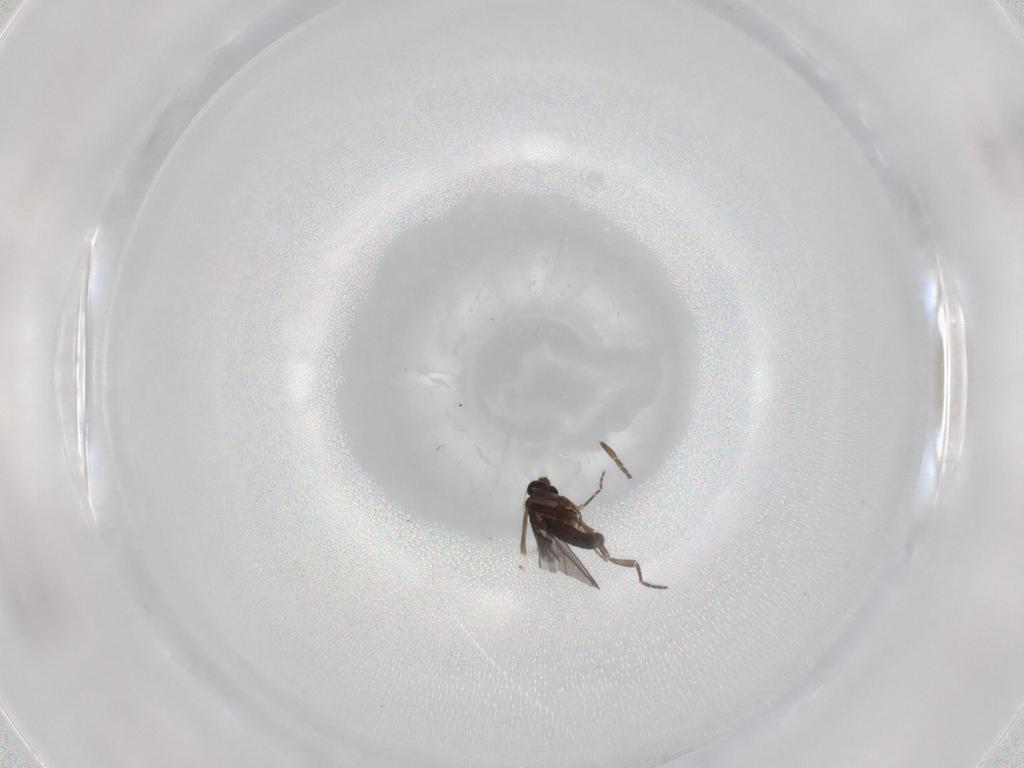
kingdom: Animalia
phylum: Arthropoda
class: Insecta
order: Diptera
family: Cecidomyiidae
